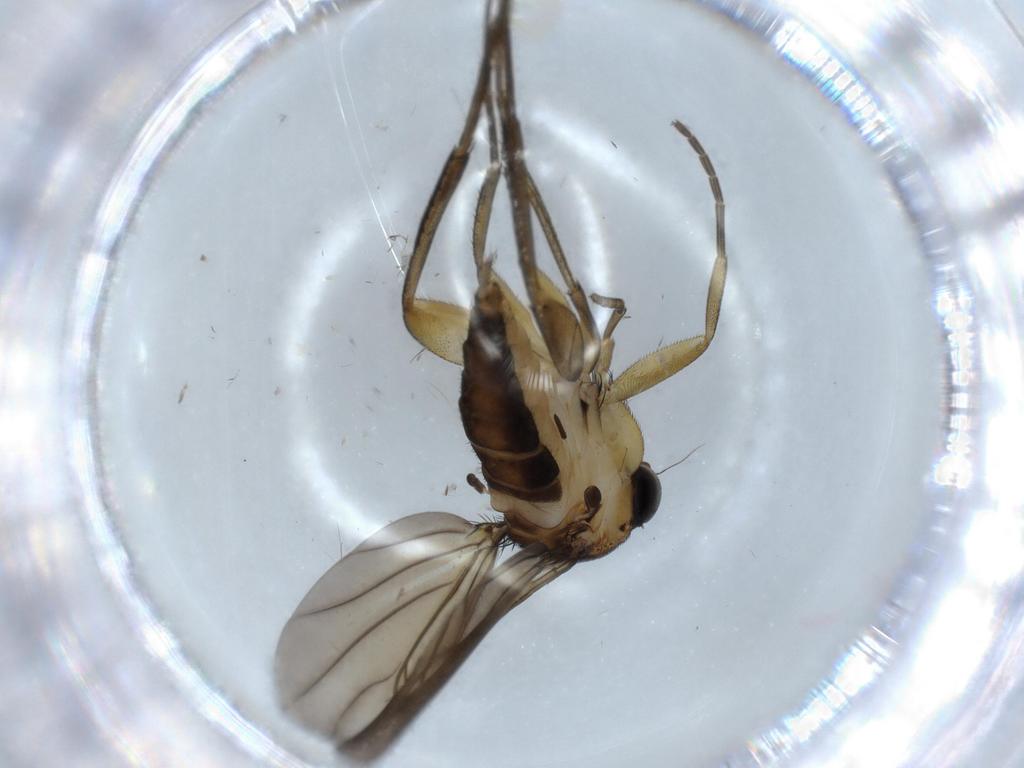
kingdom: Animalia
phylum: Arthropoda
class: Insecta
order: Diptera
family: Phoridae
